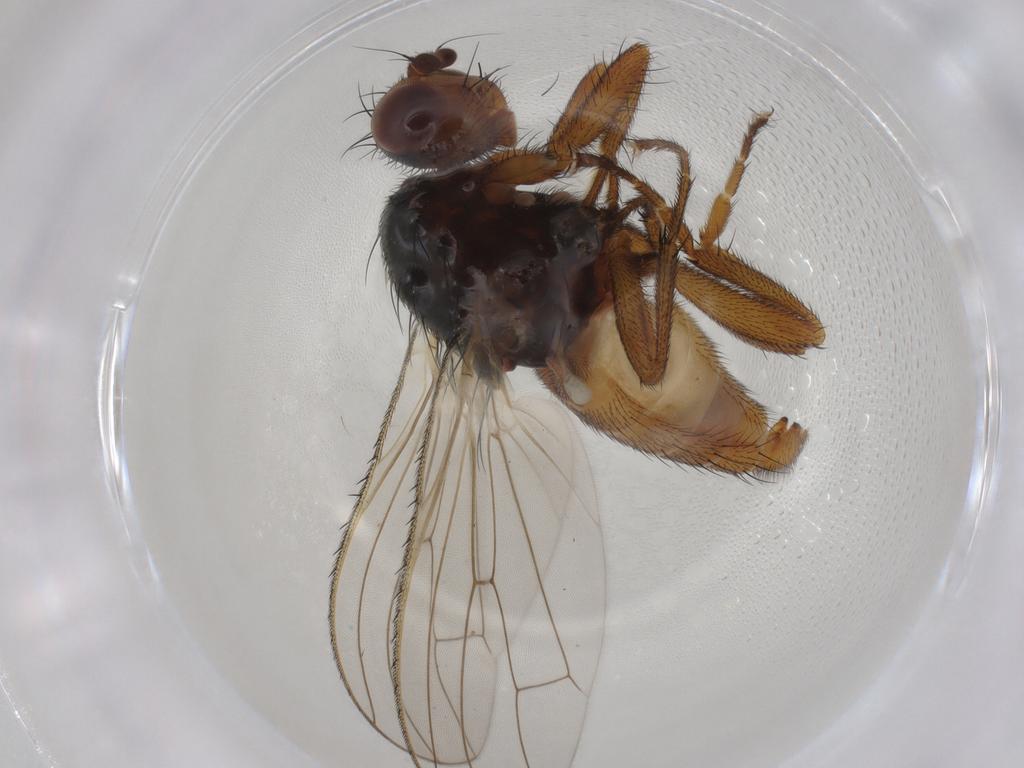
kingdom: Animalia
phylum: Arthropoda
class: Insecta
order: Diptera
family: Heleomyzidae
